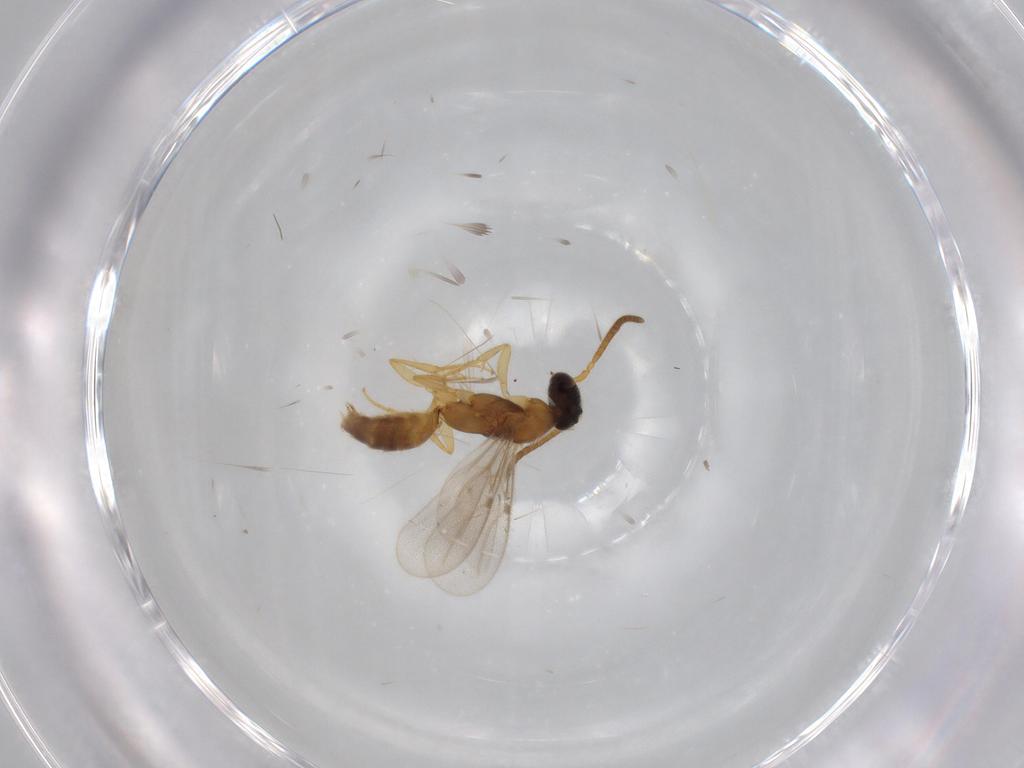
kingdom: Animalia
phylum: Arthropoda
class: Insecta
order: Hymenoptera
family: Bethylidae
